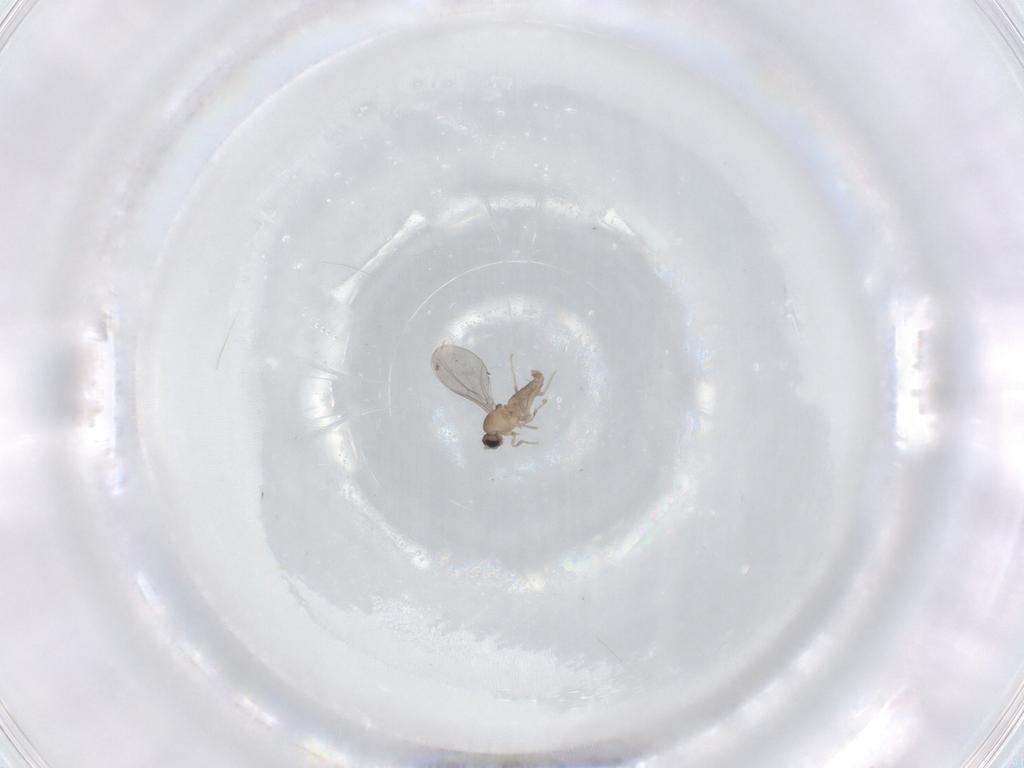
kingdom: Animalia
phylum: Arthropoda
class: Insecta
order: Diptera
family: Cecidomyiidae
